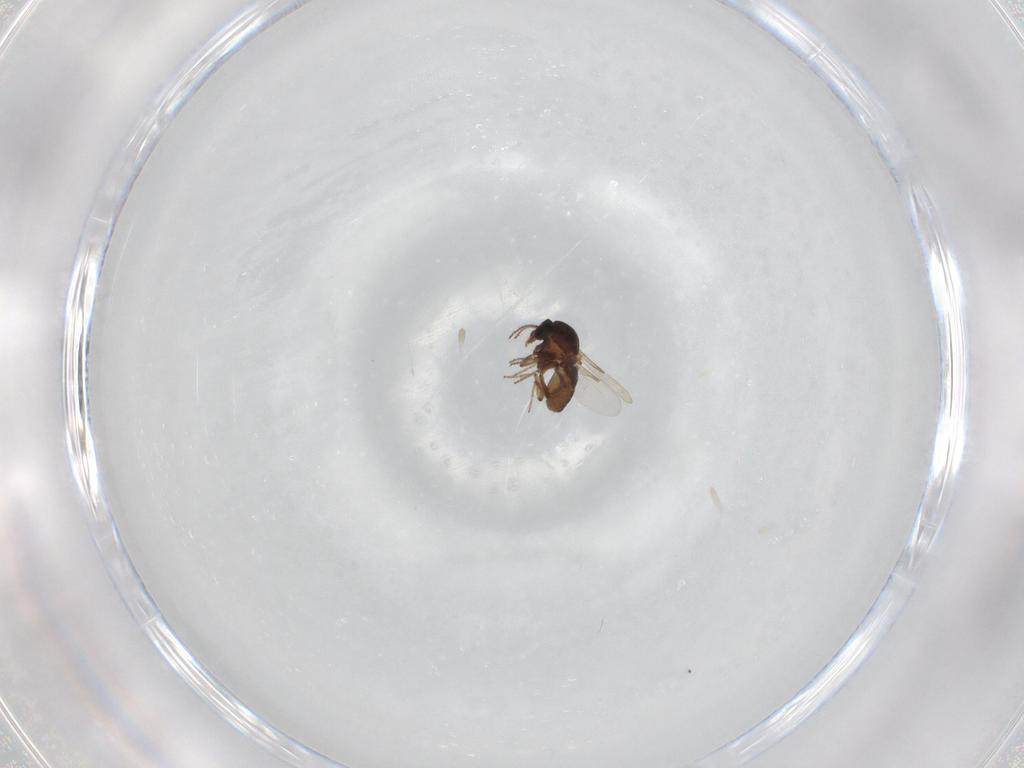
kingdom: Animalia
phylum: Arthropoda
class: Insecta
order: Diptera
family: Ceratopogonidae
